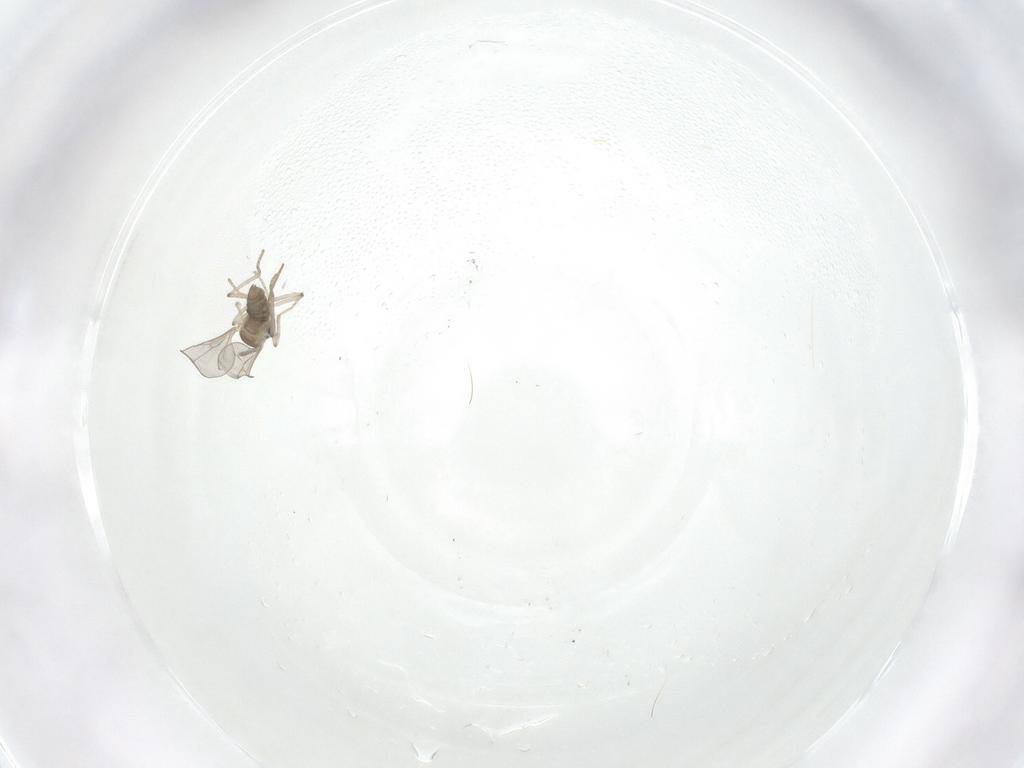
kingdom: Animalia
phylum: Arthropoda
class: Insecta
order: Diptera
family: Cecidomyiidae
